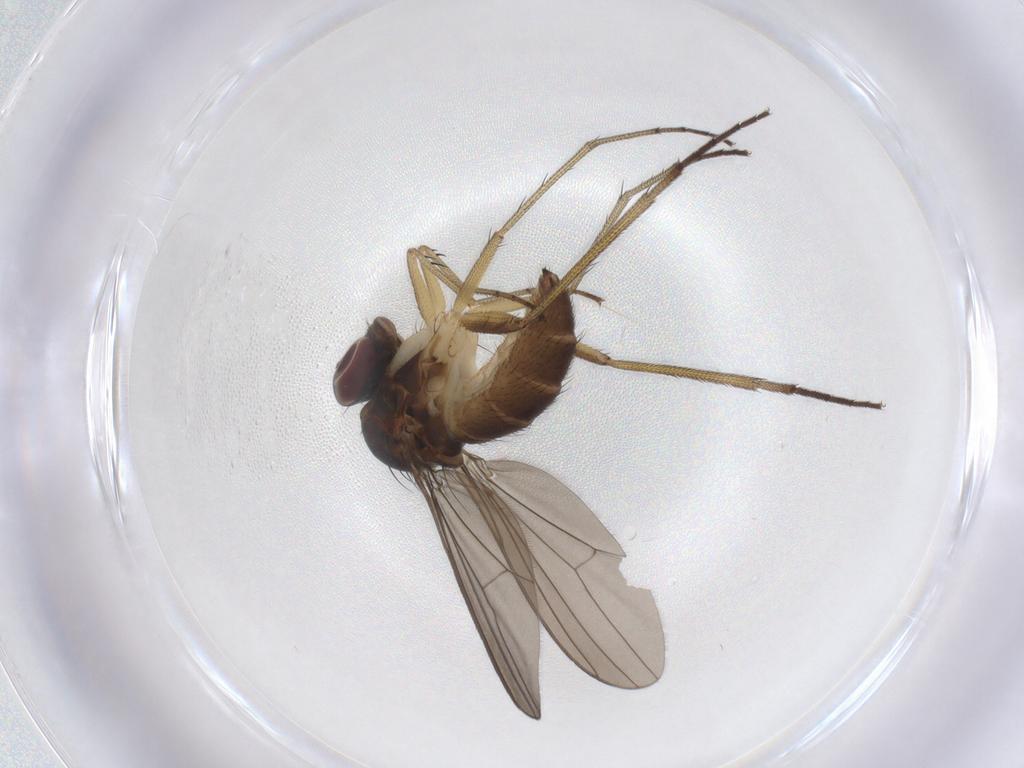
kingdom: Animalia
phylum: Arthropoda
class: Insecta
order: Diptera
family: Dolichopodidae
